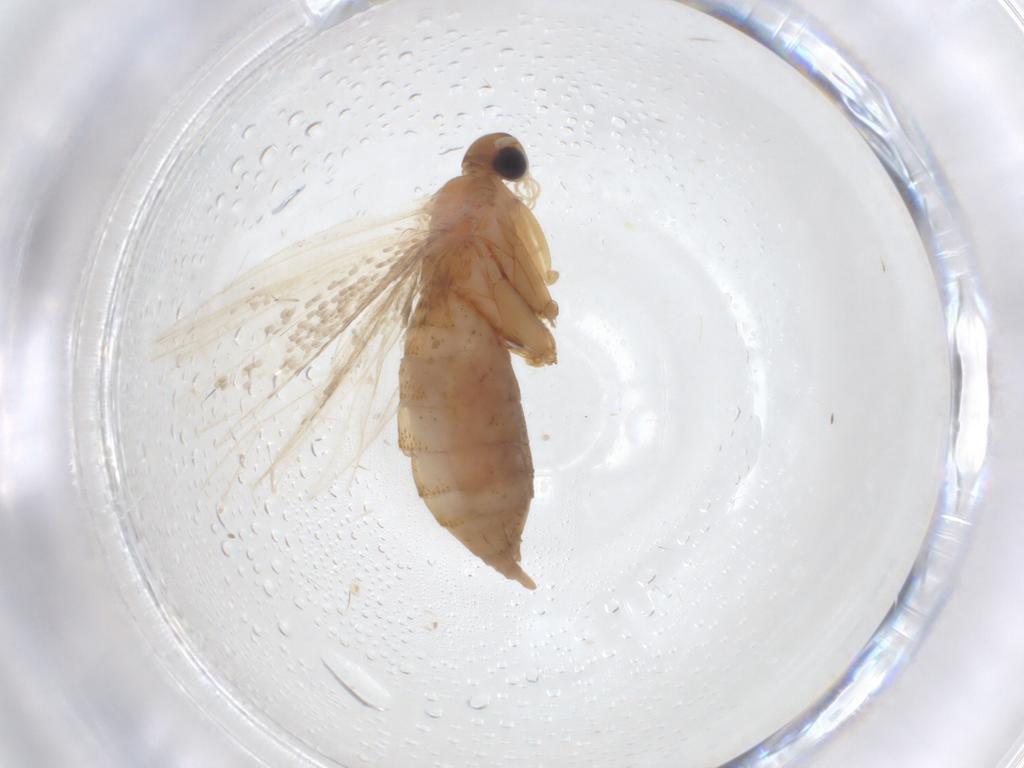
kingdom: Animalia
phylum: Arthropoda
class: Insecta
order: Lepidoptera
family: Lecithoceridae
